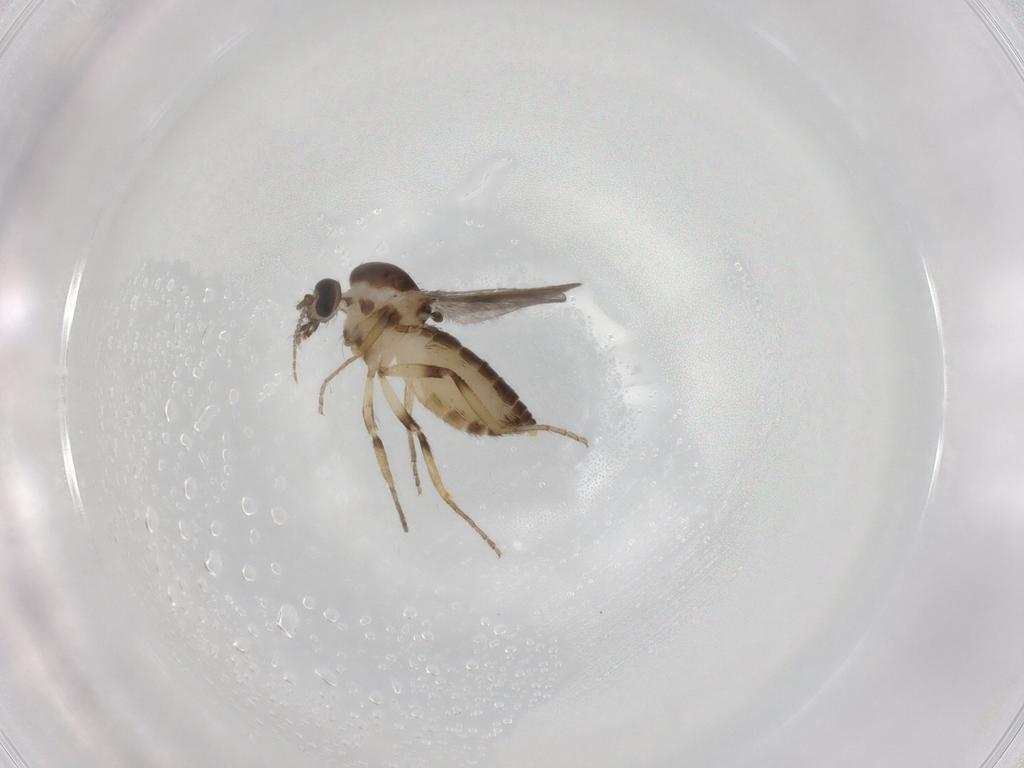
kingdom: Animalia
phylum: Arthropoda
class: Insecta
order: Diptera
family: Ceratopogonidae
